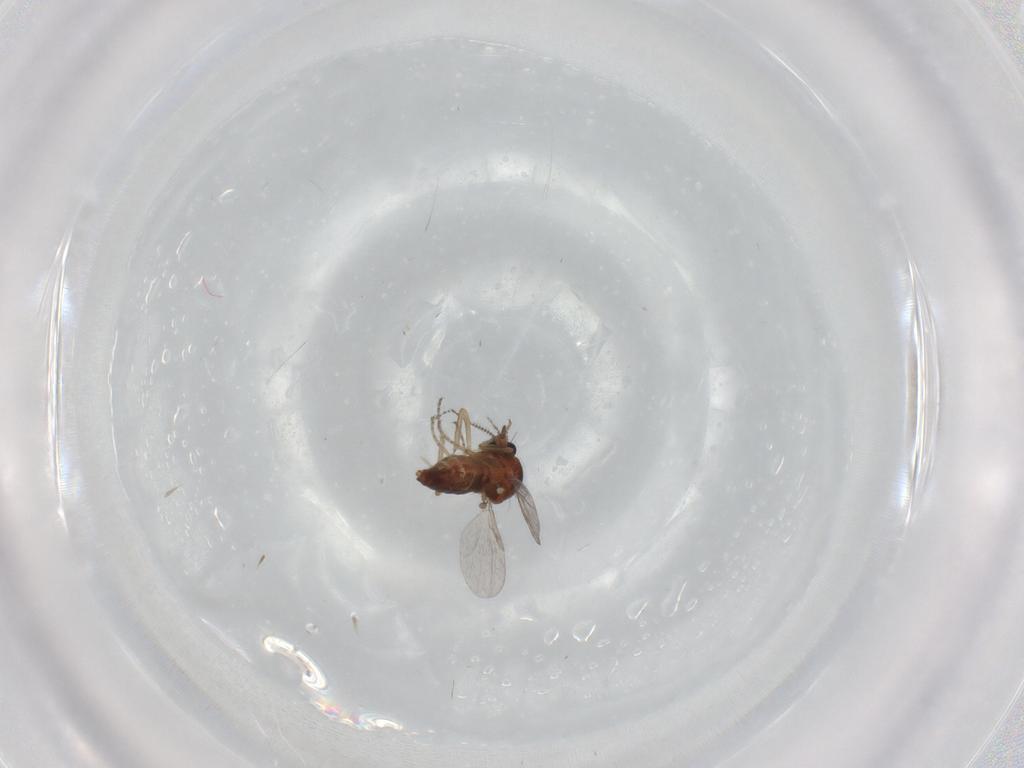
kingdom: Animalia
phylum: Arthropoda
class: Insecta
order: Diptera
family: Ceratopogonidae
